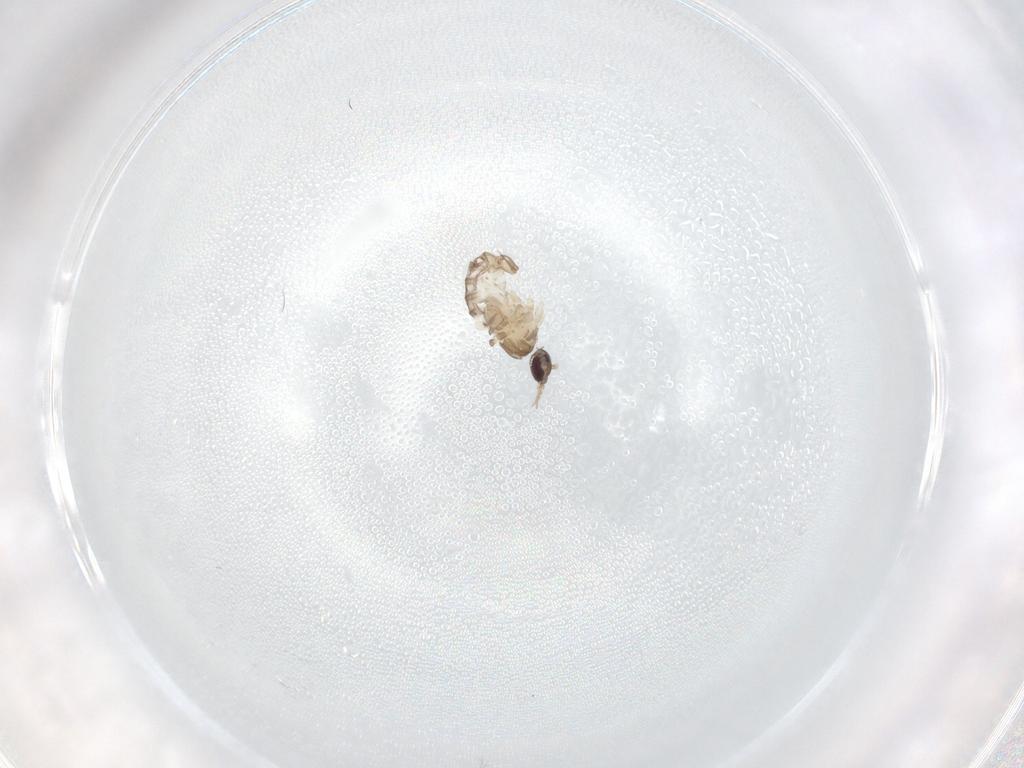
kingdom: Animalia
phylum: Arthropoda
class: Insecta
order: Diptera
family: Psychodidae
